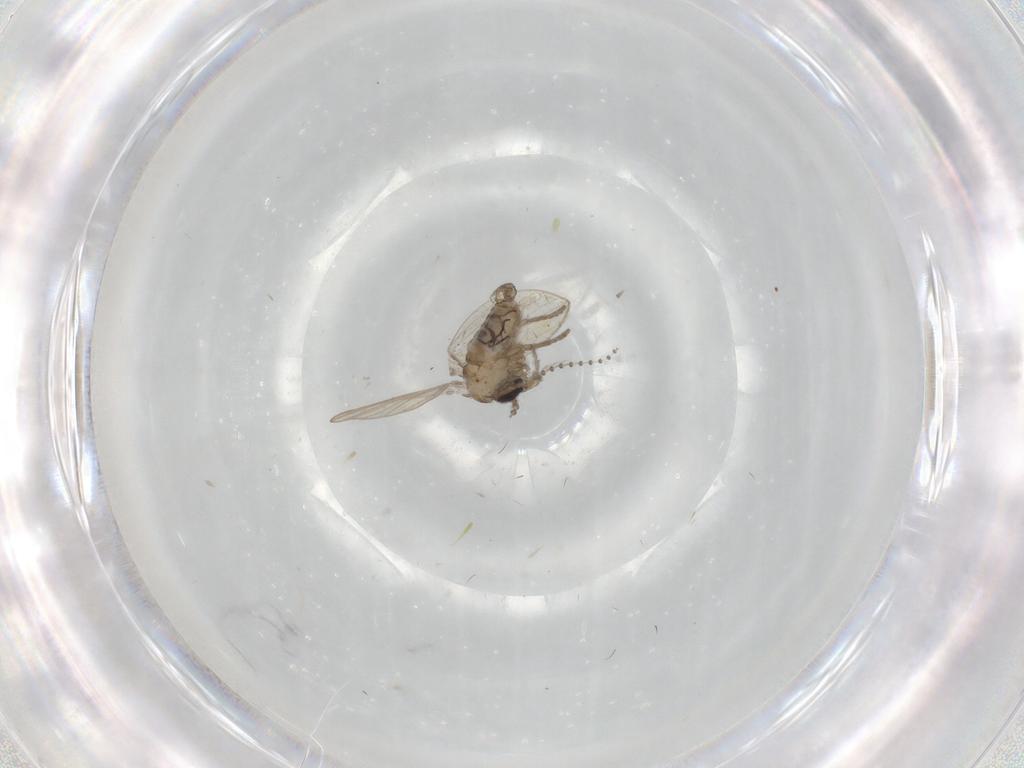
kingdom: Animalia
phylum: Arthropoda
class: Insecta
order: Diptera
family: Psychodidae
